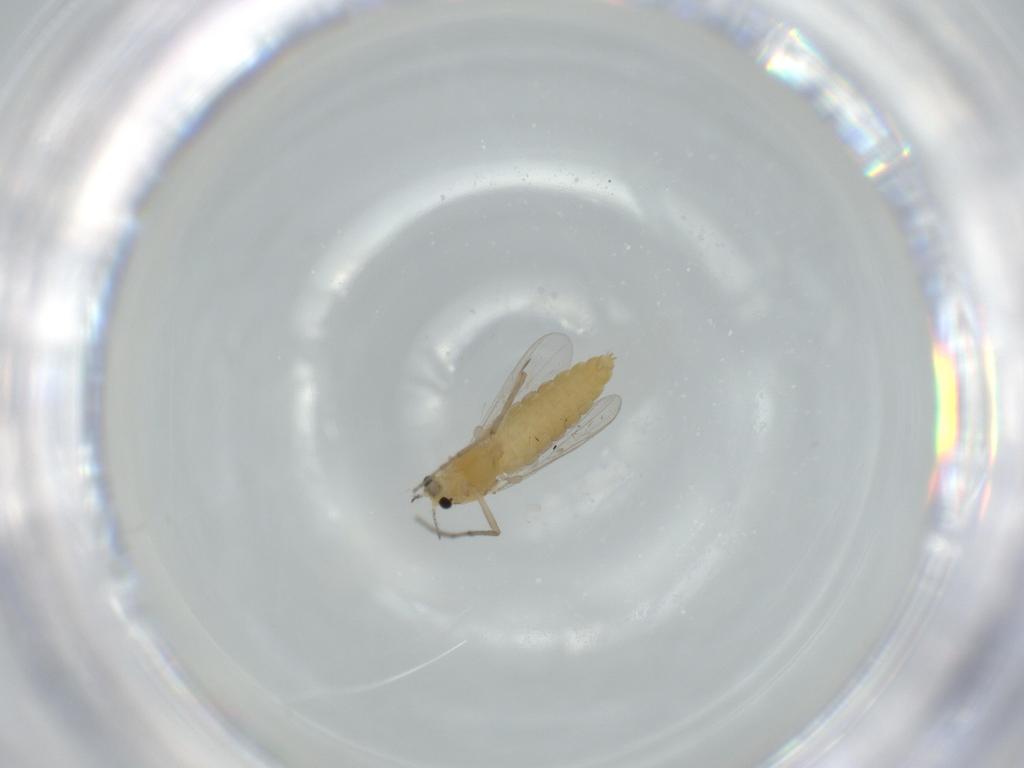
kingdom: Animalia
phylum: Arthropoda
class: Insecta
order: Diptera
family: Chironomidae
